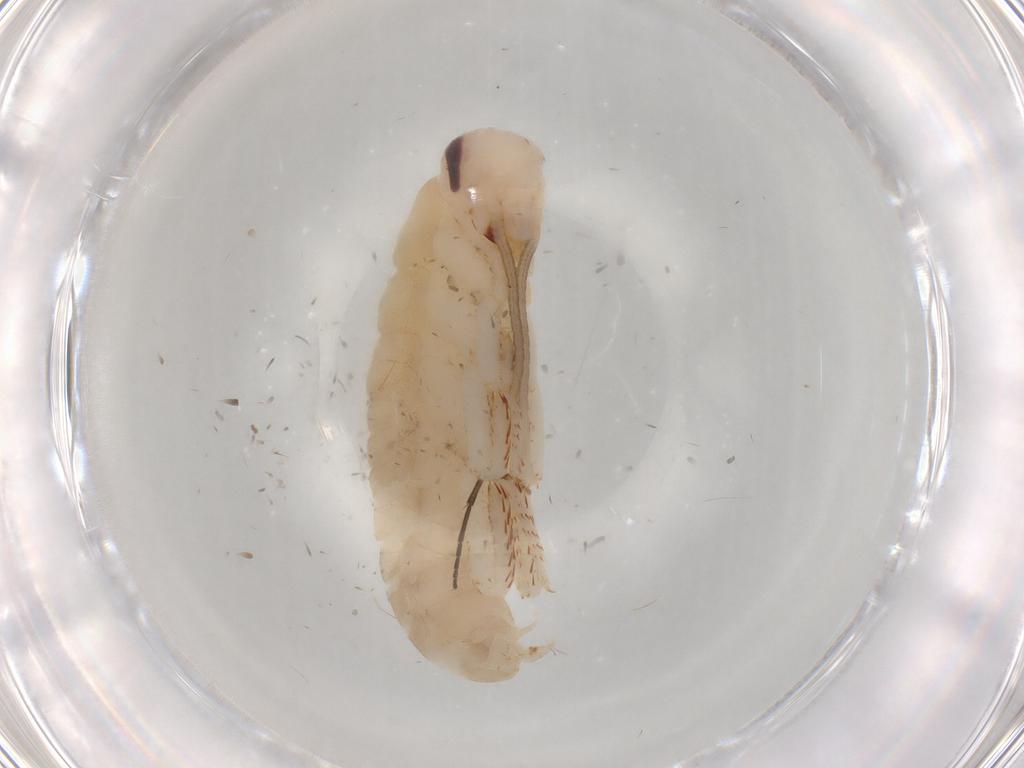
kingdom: Animalia
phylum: Arthropoda
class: Insecta
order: Blattodea
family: Blaberidae
